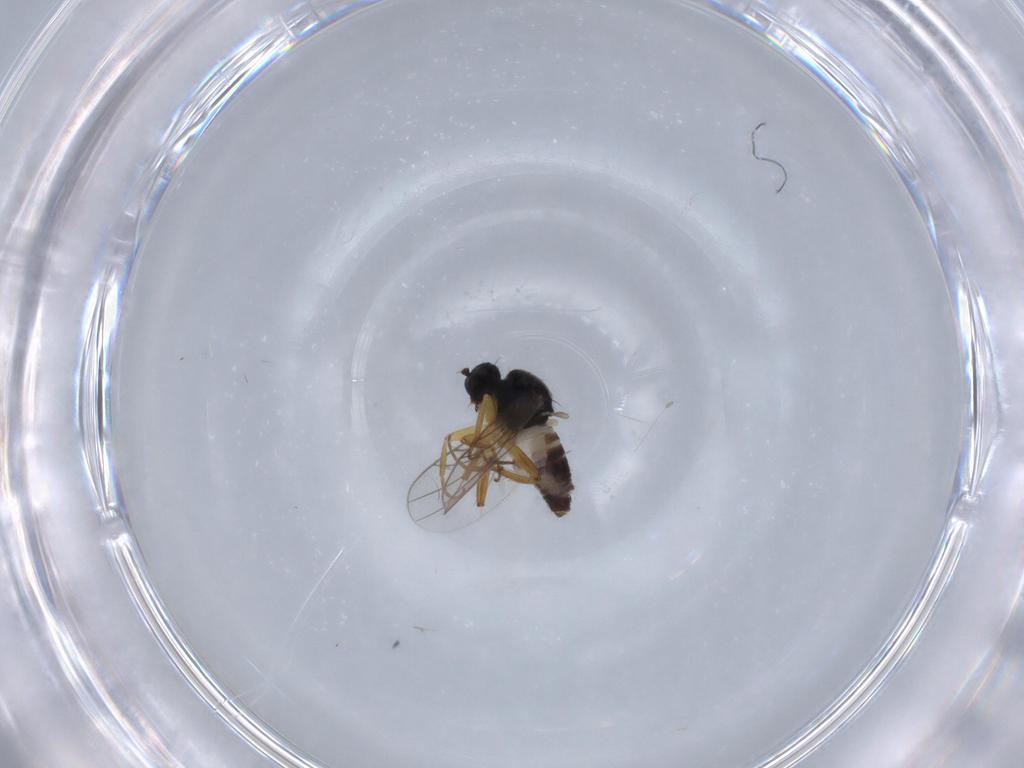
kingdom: Animalia
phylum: Arthropoda
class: Insecta
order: Diptera
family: Hybotidae
